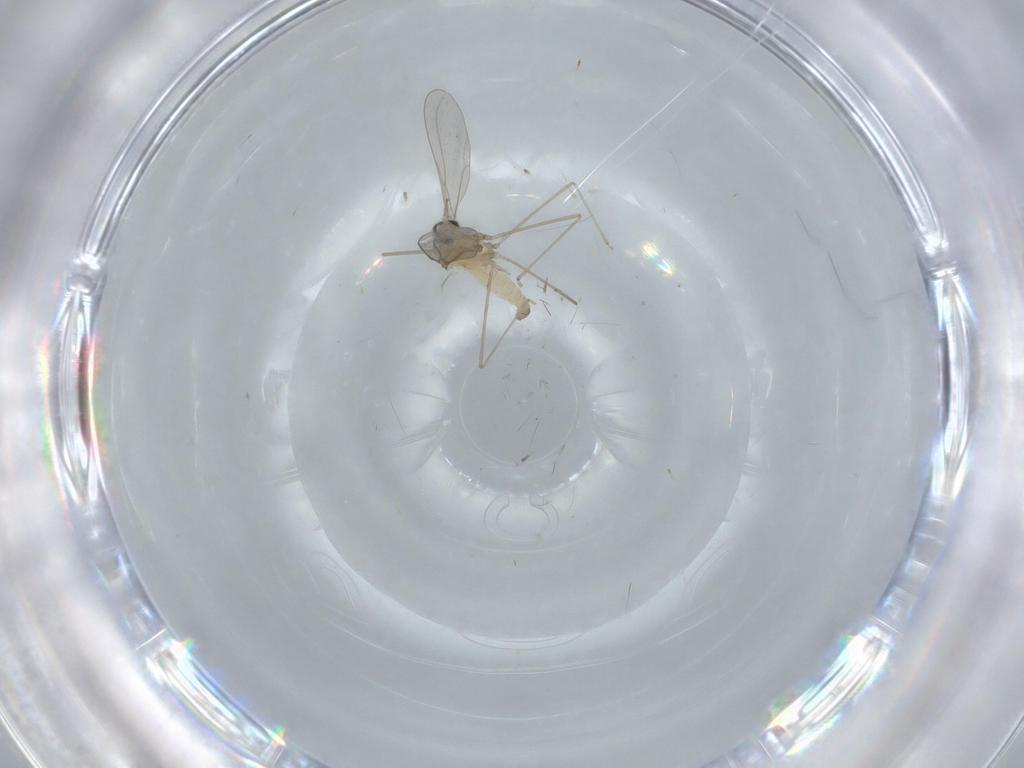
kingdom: Animalia
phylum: Arthropoda
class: Insecta
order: Diptera
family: Cecidomyiidae
